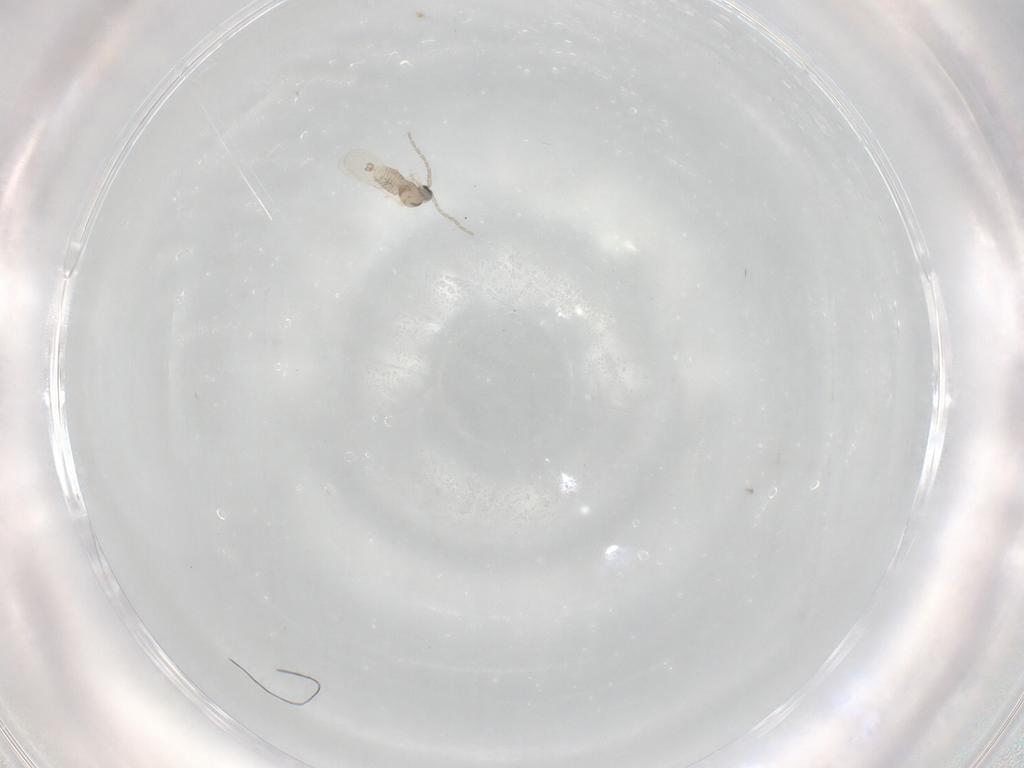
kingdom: Animalia
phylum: Arthropoda
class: Insecta
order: Diptera
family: Cecidomyiidae
